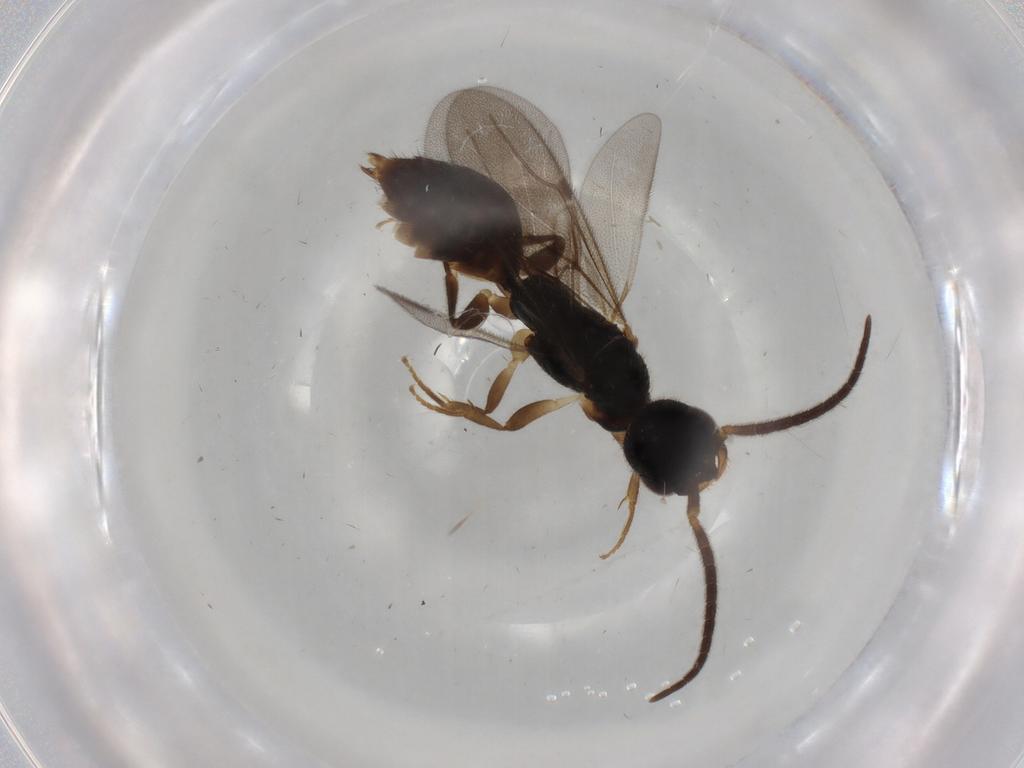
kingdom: Animalia
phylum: Arthropoda
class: Insecta
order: Hymenoptera
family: Bethylidae
